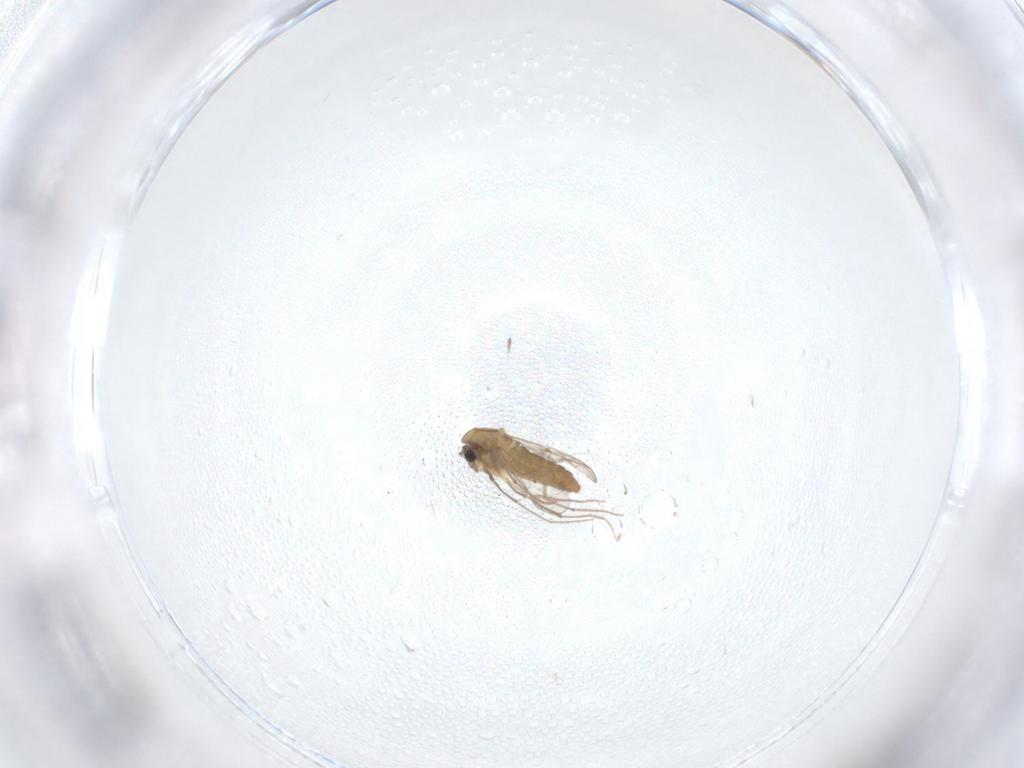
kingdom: Animalia
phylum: Arthropoda
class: Insecta
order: Diptera
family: Chironomidae
